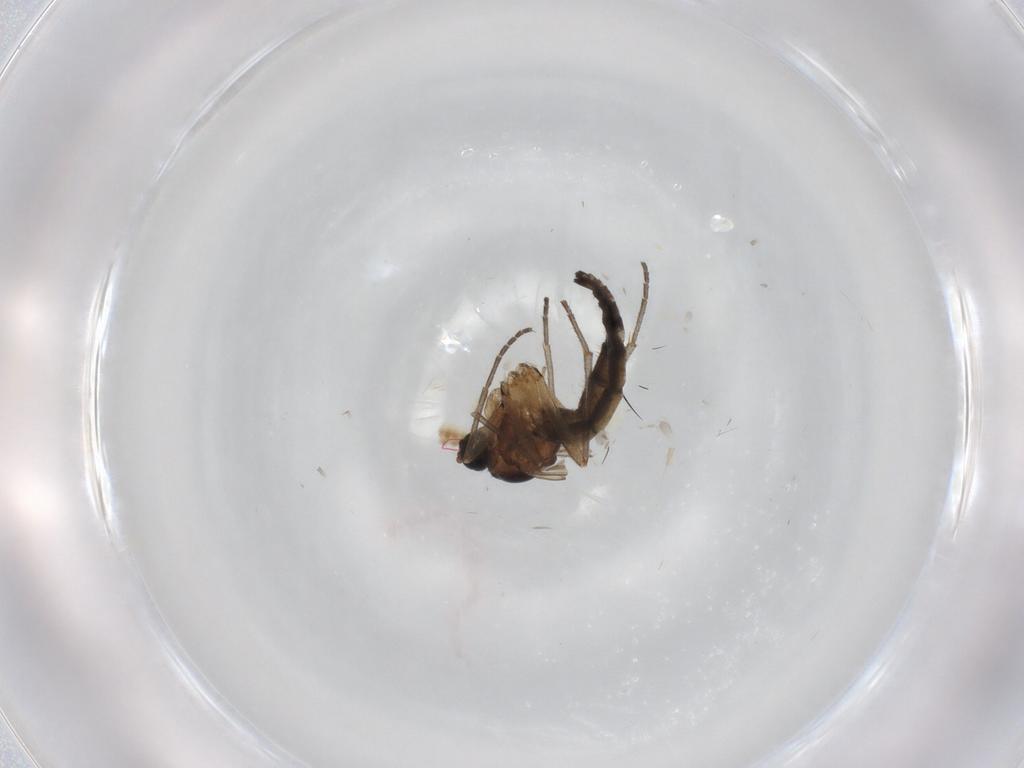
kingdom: Animalia
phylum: Arthropoda
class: Insecta
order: Diptera
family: Sciaridae
